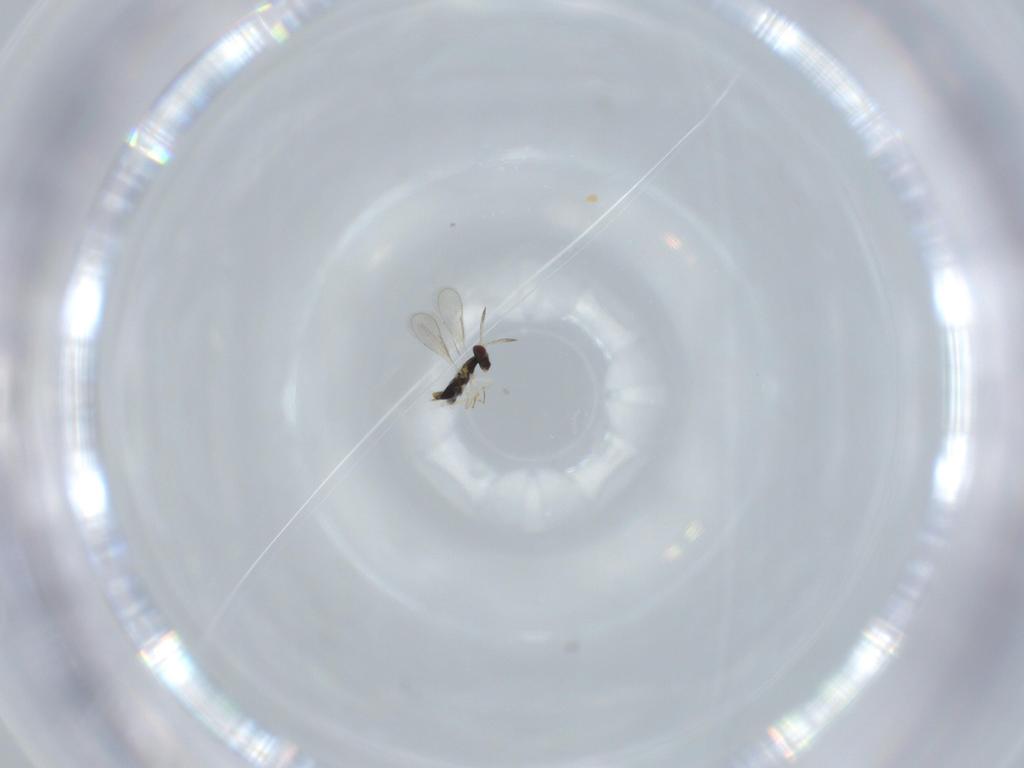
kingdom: Animalia
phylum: Arthropoda
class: Insecta
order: Hymenoptera
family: Aphelinidae
